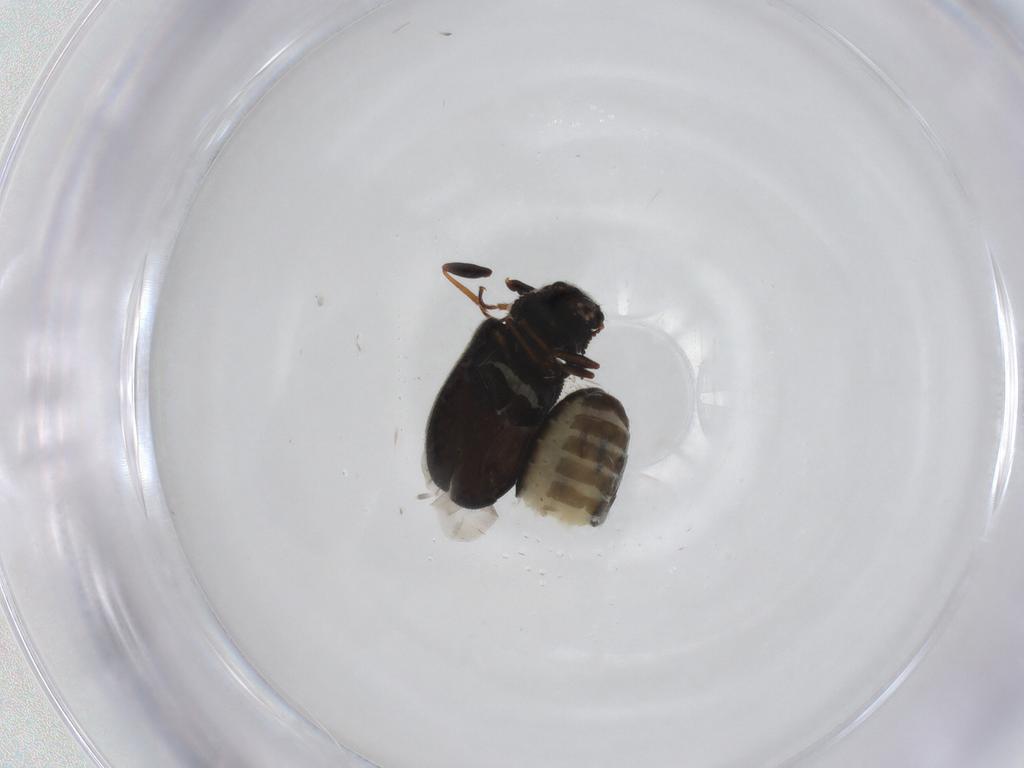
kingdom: Animalia
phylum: Arthropoda
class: Insecta
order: Coleoptera
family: Melyridae
